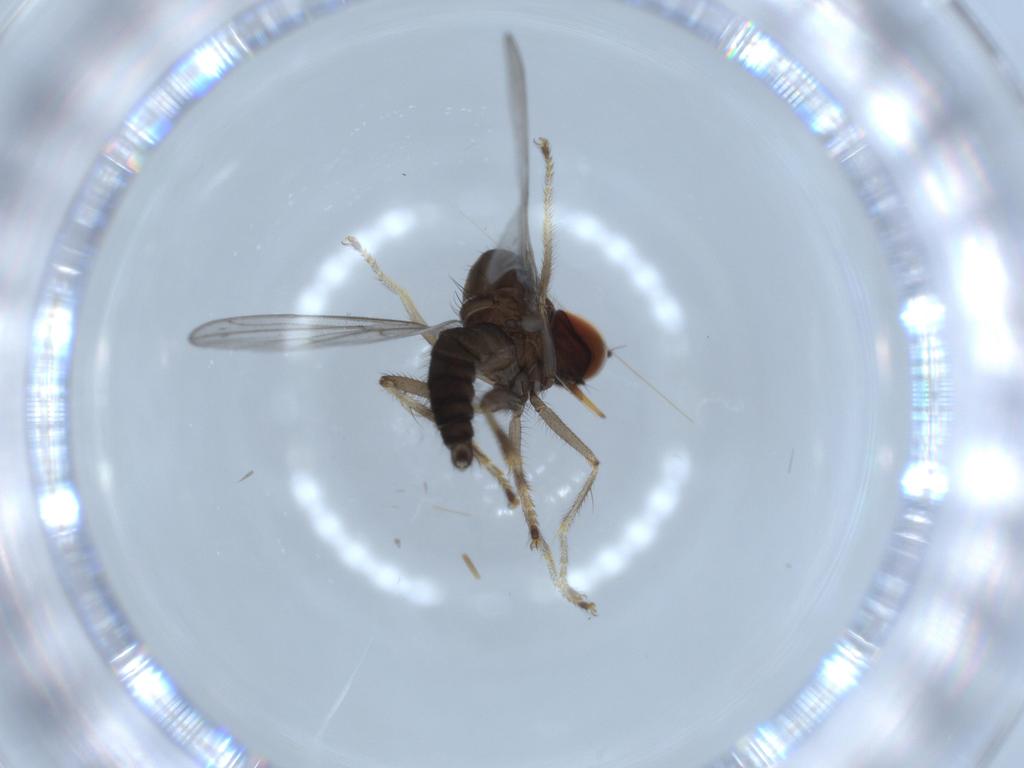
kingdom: Animalia
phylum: Arthropoda
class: Insecta
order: Diptera
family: Hybotidae
